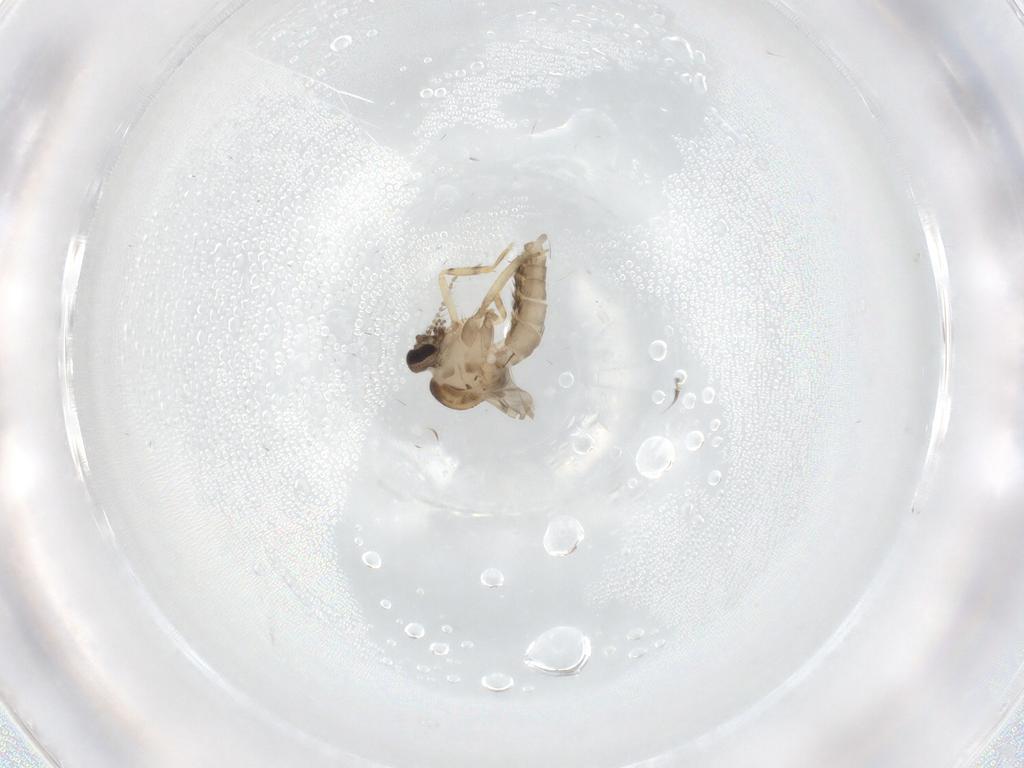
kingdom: Animalia
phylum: Arthropoda
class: Insecta
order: Diptera
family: Ceratopogonidae
